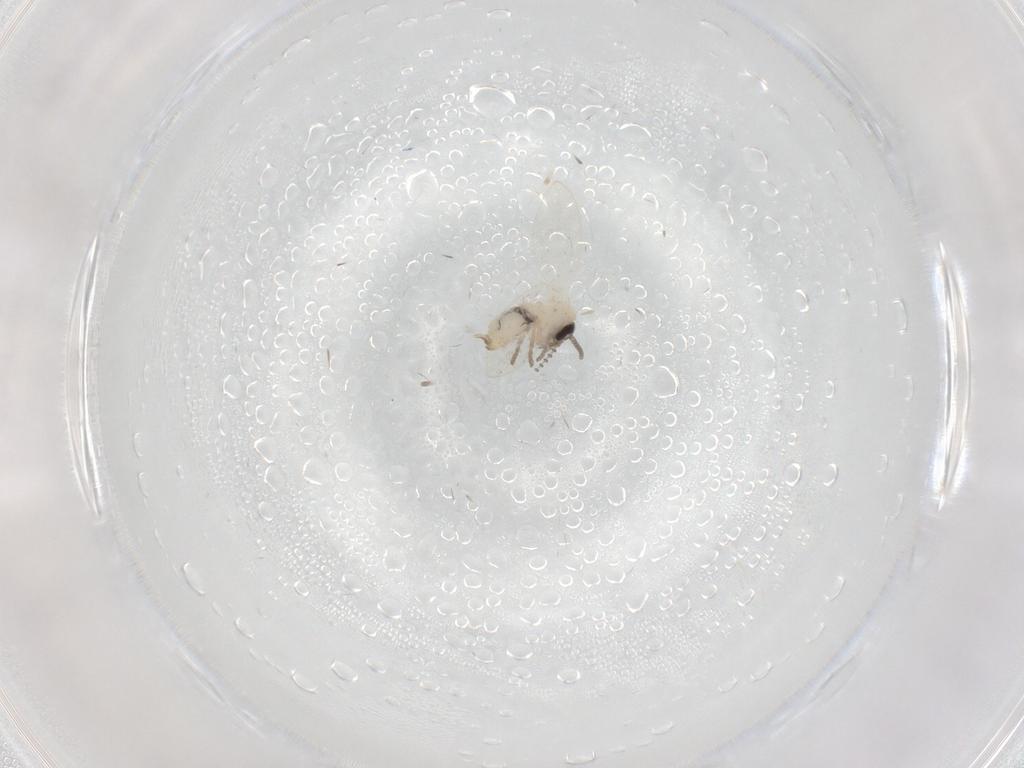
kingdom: Animalia
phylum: Arthropoda
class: Insecta
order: Diptera
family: Psychodidae
